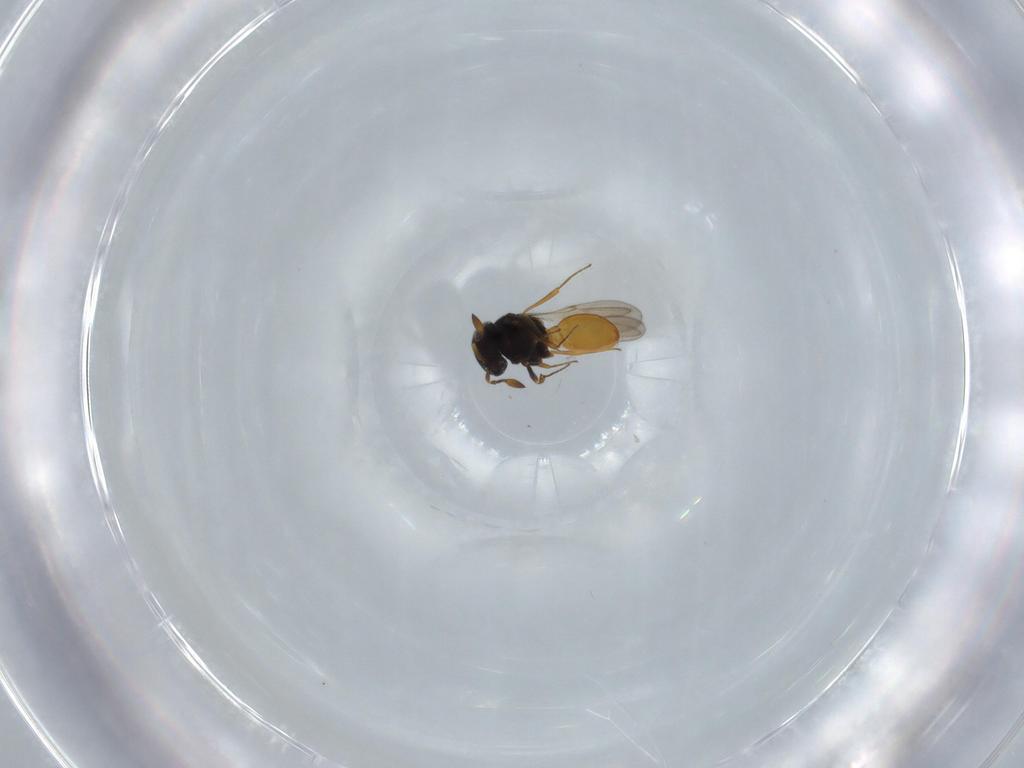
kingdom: Animalia
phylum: Arthropoda
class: Insecta
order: Hymenoptera
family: Scelionidae
